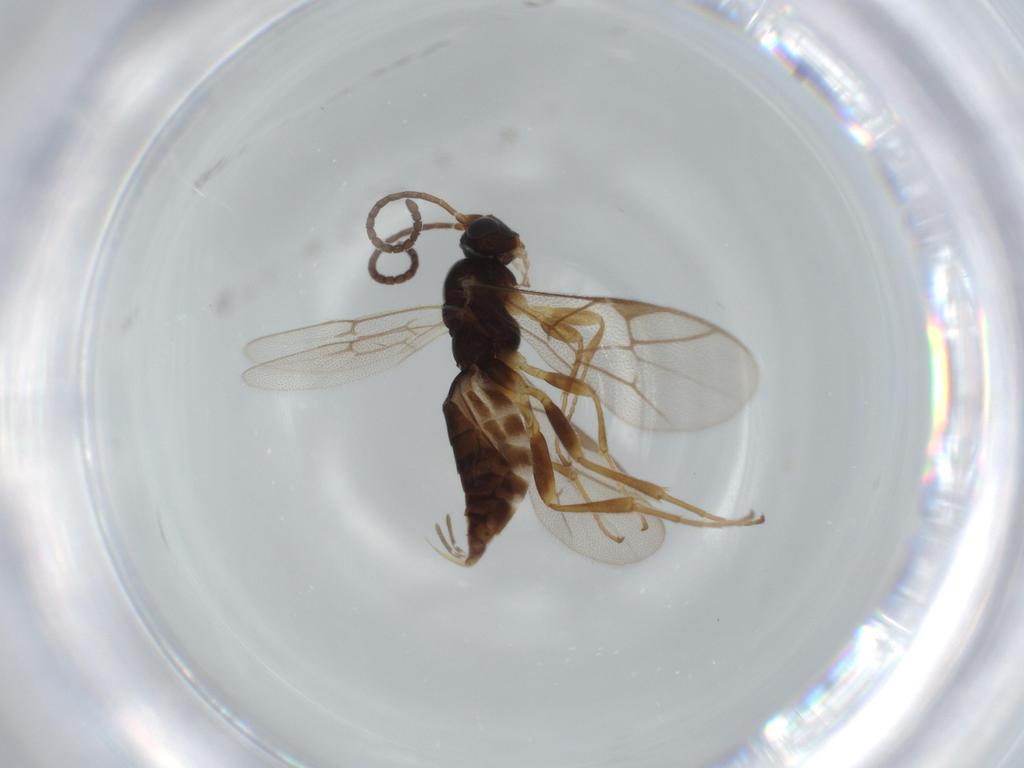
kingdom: Animalia
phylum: Arthropoda
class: Insecta
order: Hymenoptera
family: Ichneumonidae
